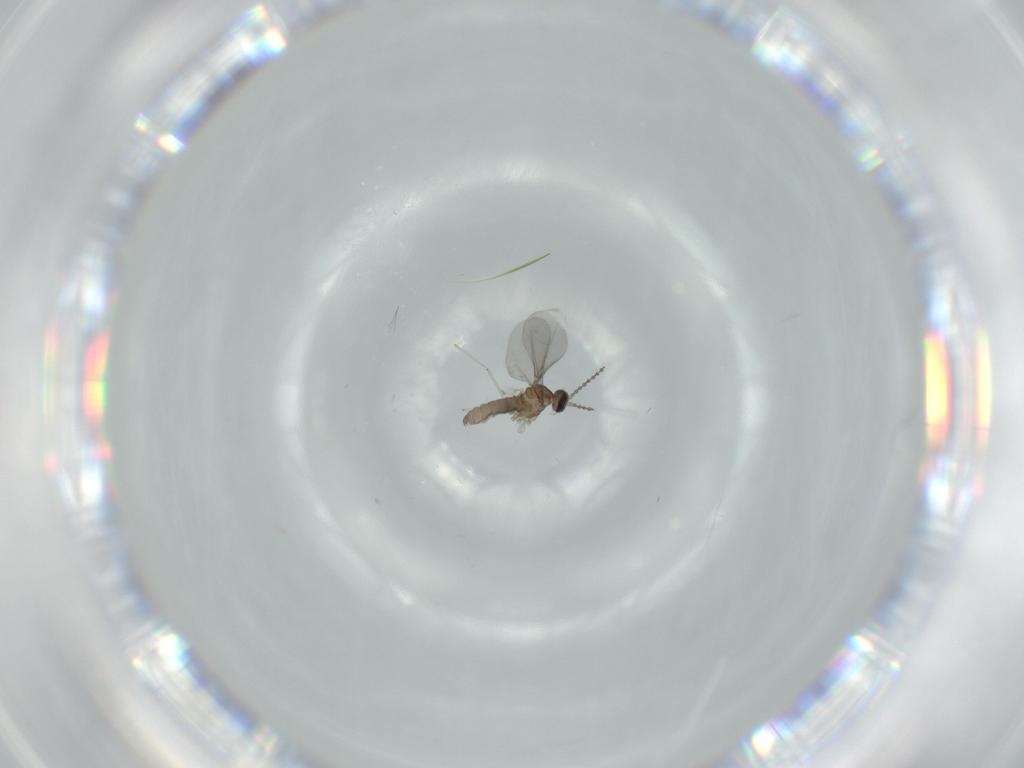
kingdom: Animalia
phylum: Arthropoda
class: Insecta
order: Diptera
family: Cecidomyiidae
